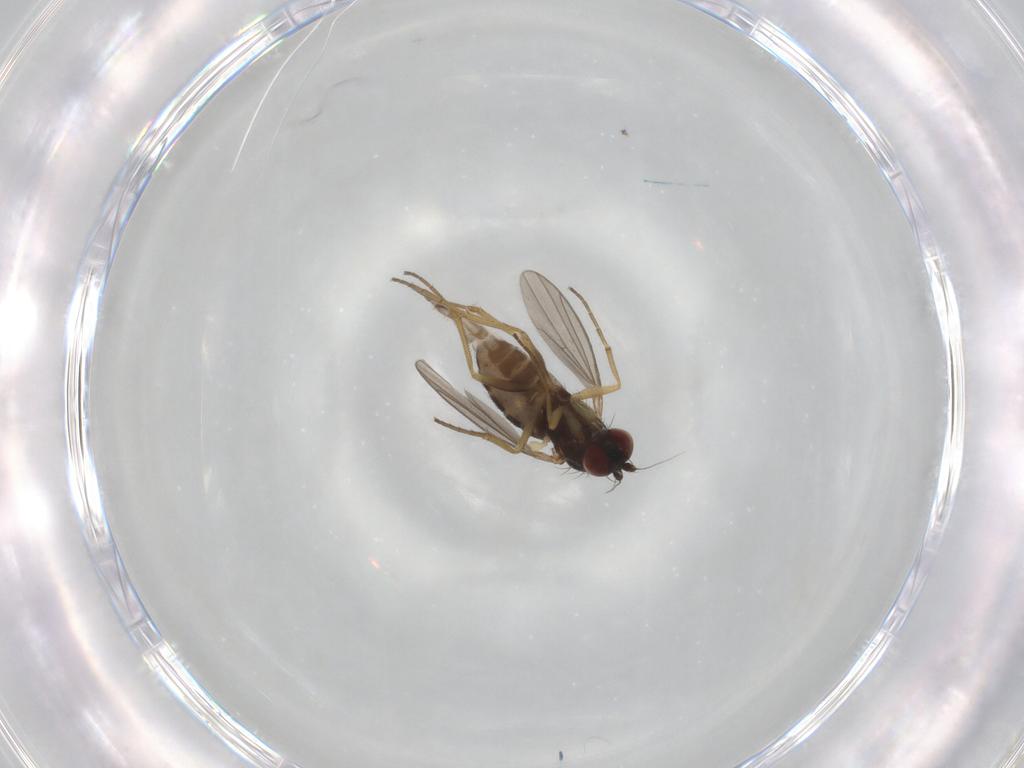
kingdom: Animalia
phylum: Arthropoda
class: Insecta
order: Diptera
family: Dolichopodidae
